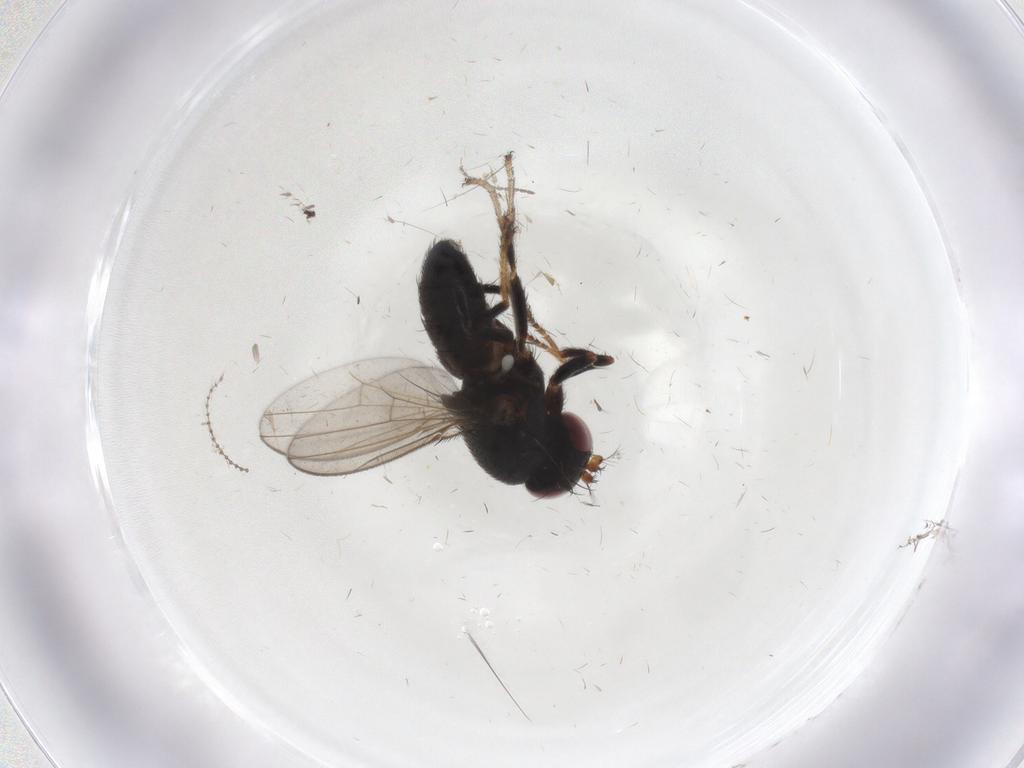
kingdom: Animalia
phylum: Arthropoda
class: Insecta
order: Diptera
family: Ephydridae
